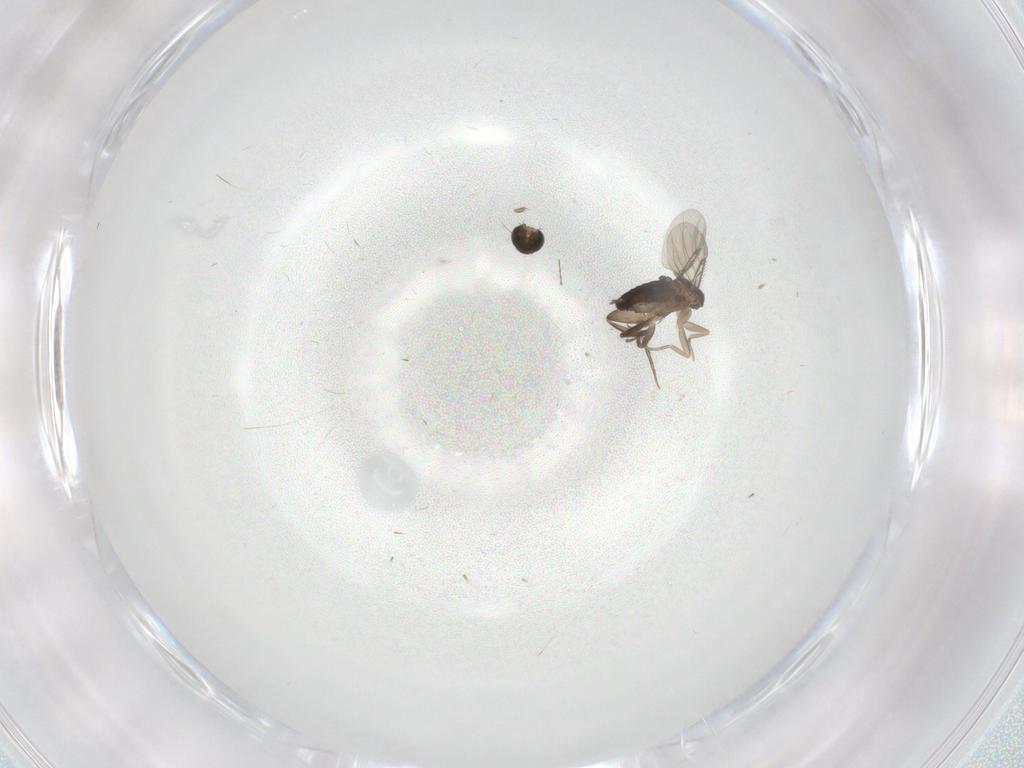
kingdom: Animalia
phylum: Arthropoda
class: Insecta
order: Diptera
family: Phoridae
